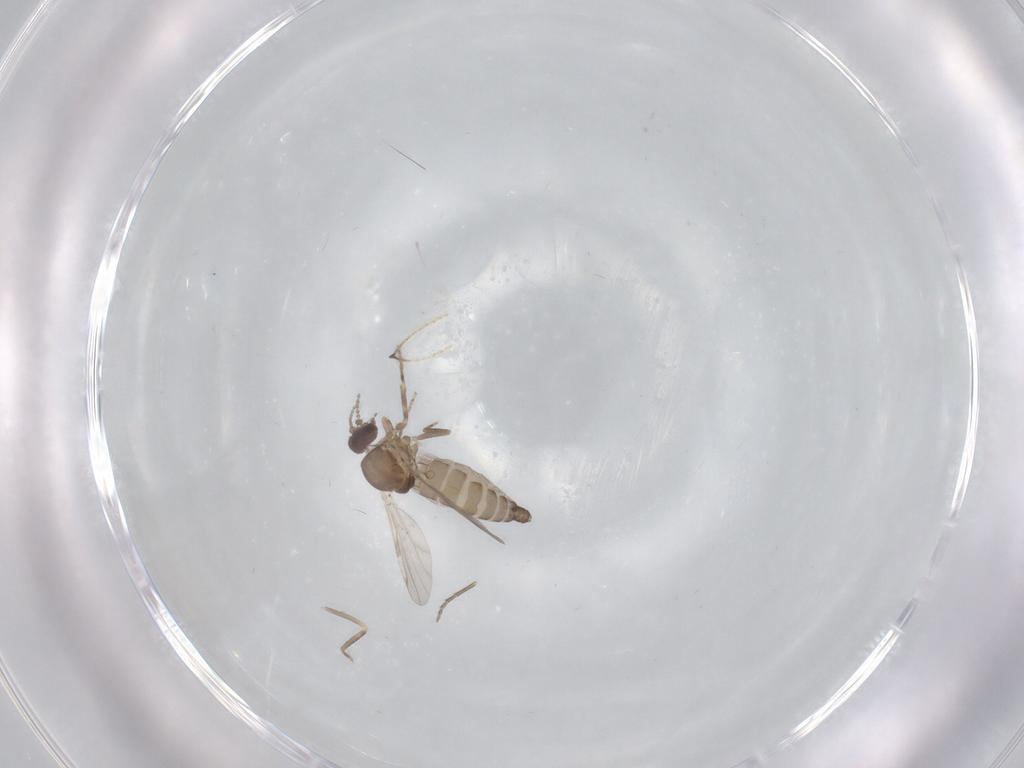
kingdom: Animalia
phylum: Arthropoda
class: Insecta
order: Diptera
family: Limoniidae
